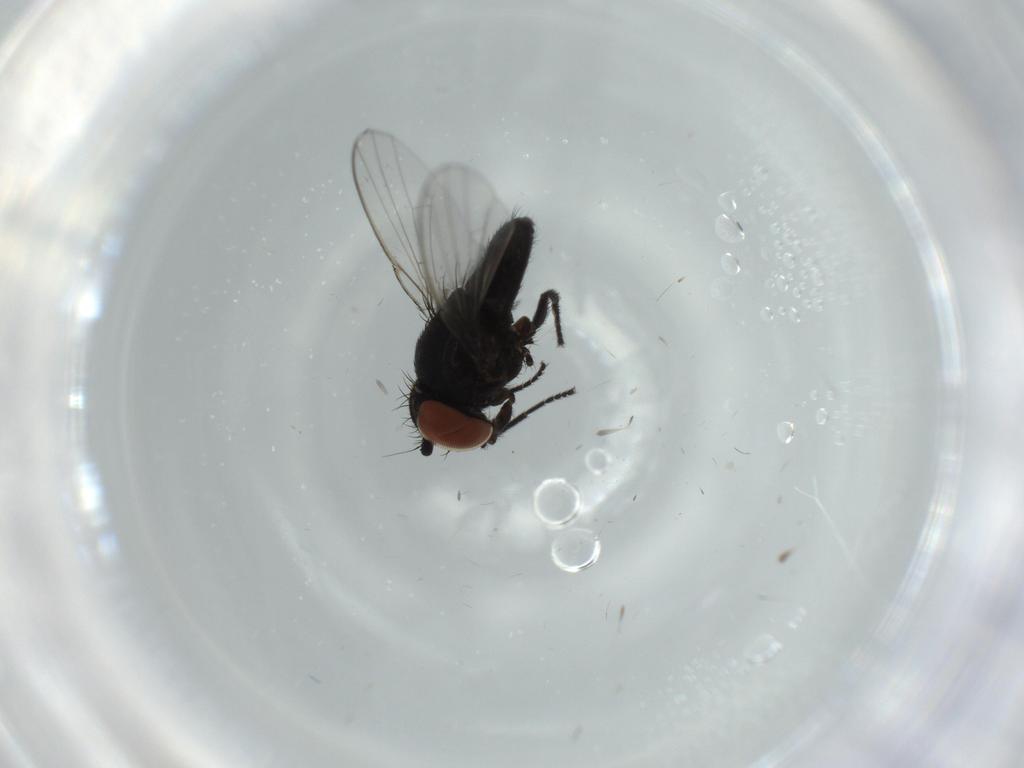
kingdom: Animalia
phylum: Arthropoda
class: Insecta
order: Diptera
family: Milichiidae
